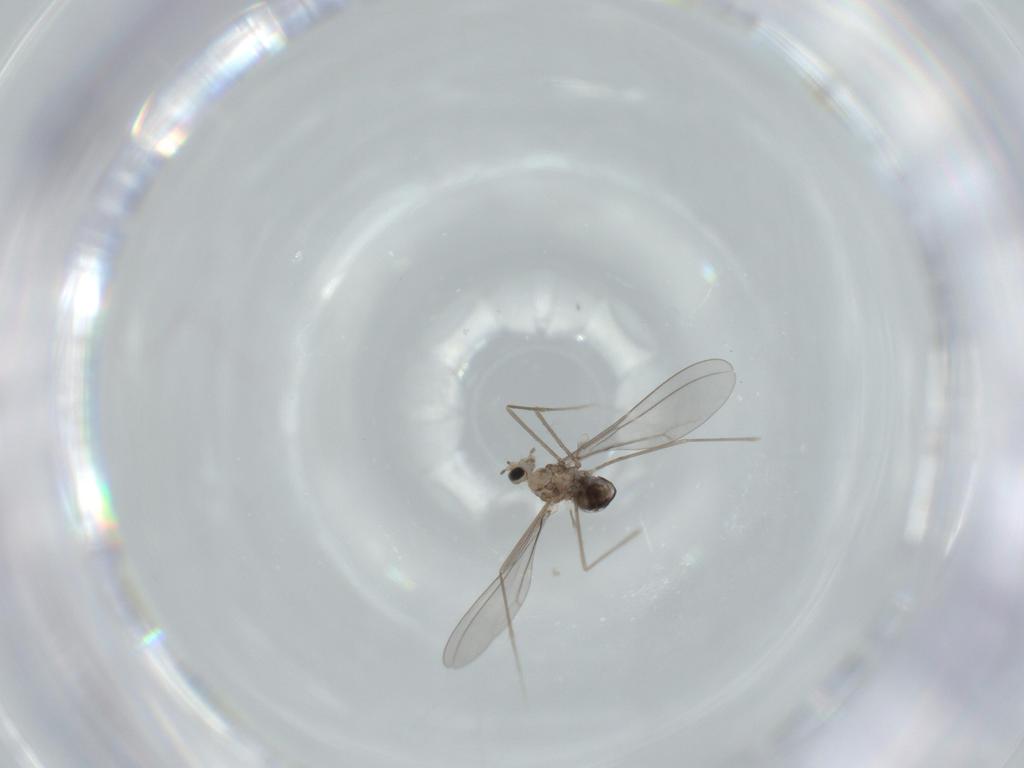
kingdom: Animalia
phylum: Arthropoda
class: Insecta
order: Diptera
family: Cecidomyiidae
